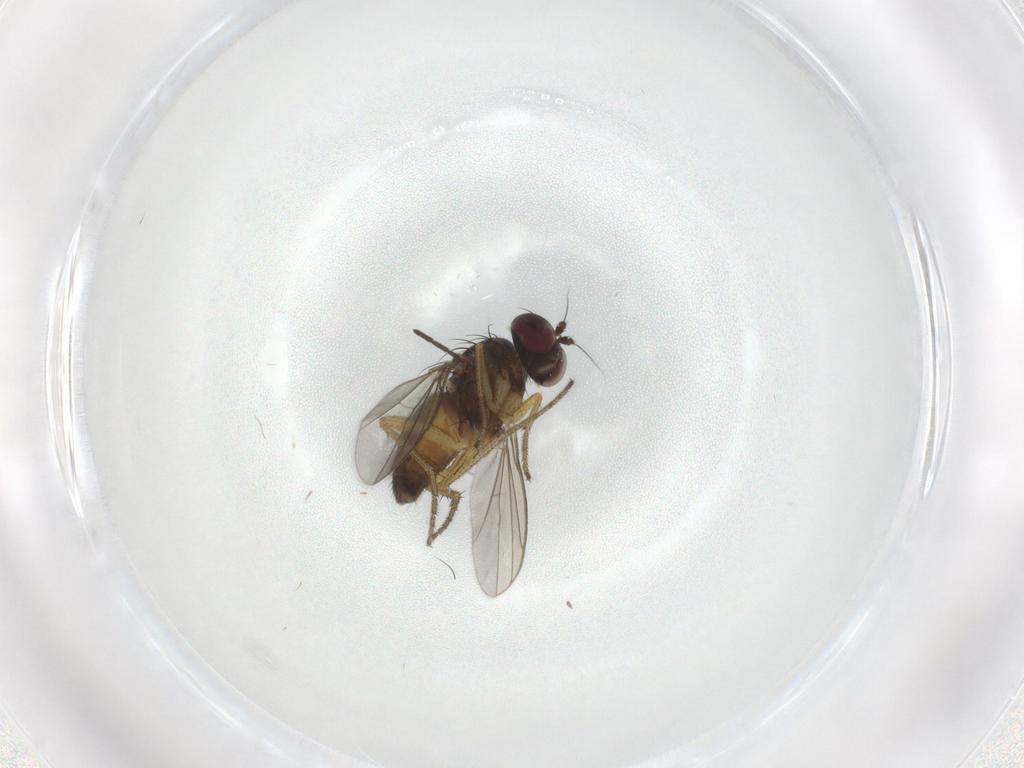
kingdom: Animalia
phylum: Arthropoda
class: Insecta
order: Diptera
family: Dolichopodidae
